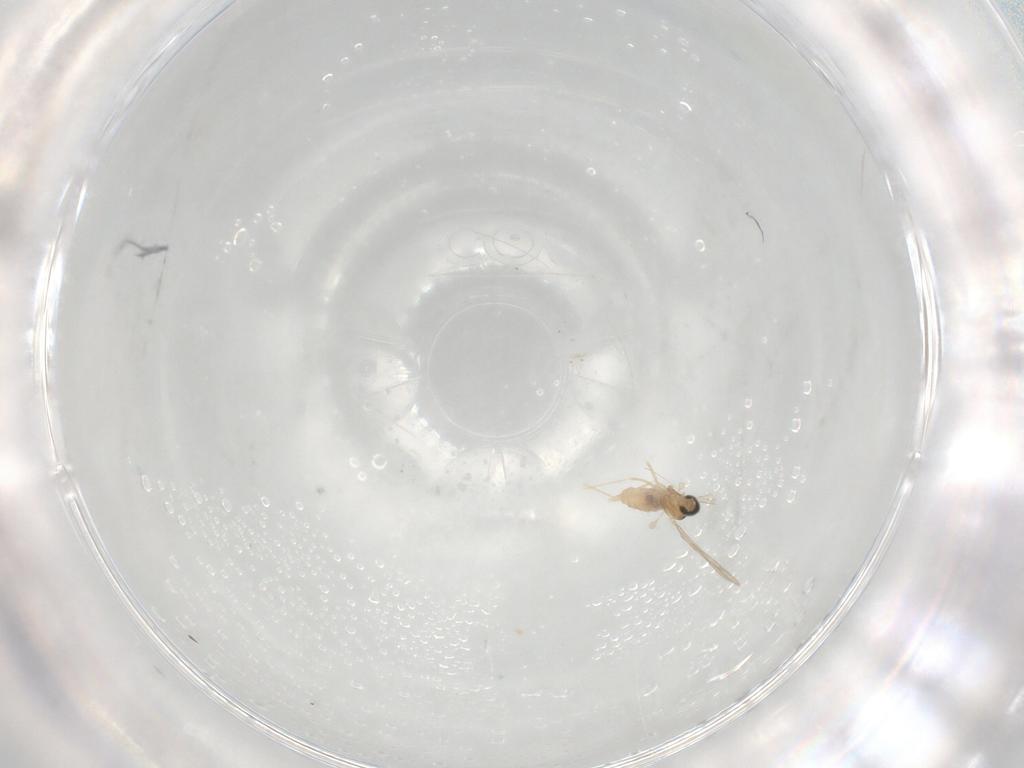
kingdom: Animalia
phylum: Arthropoda
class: Insecta
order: Diptera
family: Cecidomyiidae
